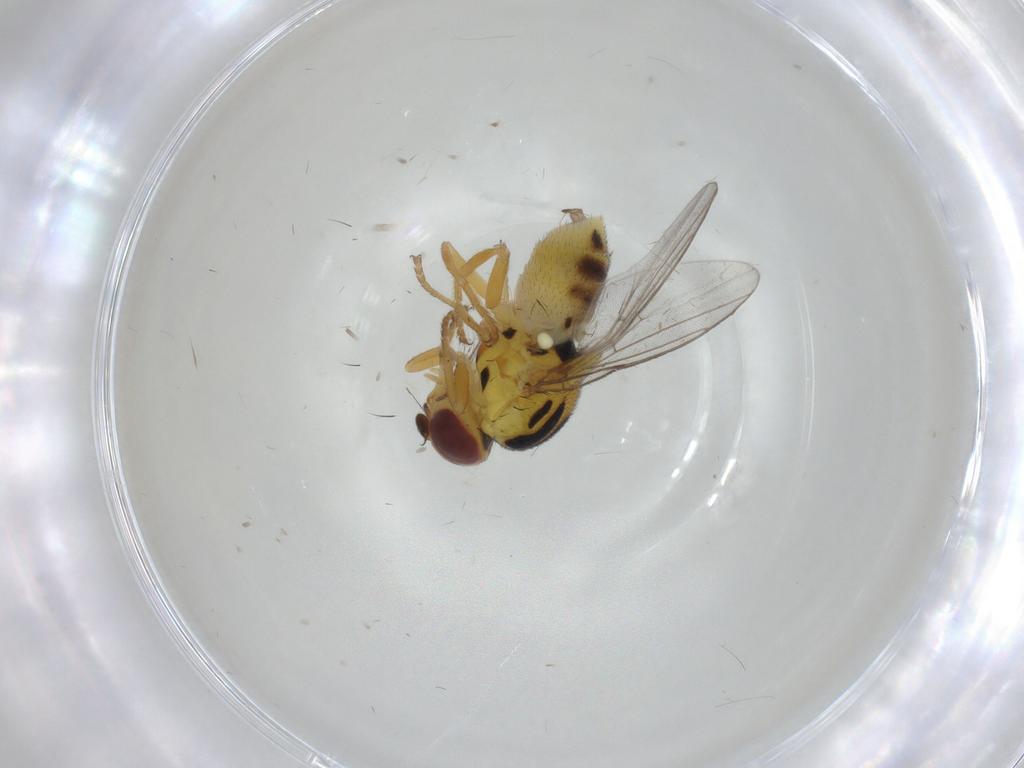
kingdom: Animalia
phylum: Arthropoda
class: Insecta
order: Diptera
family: Chloropidae
